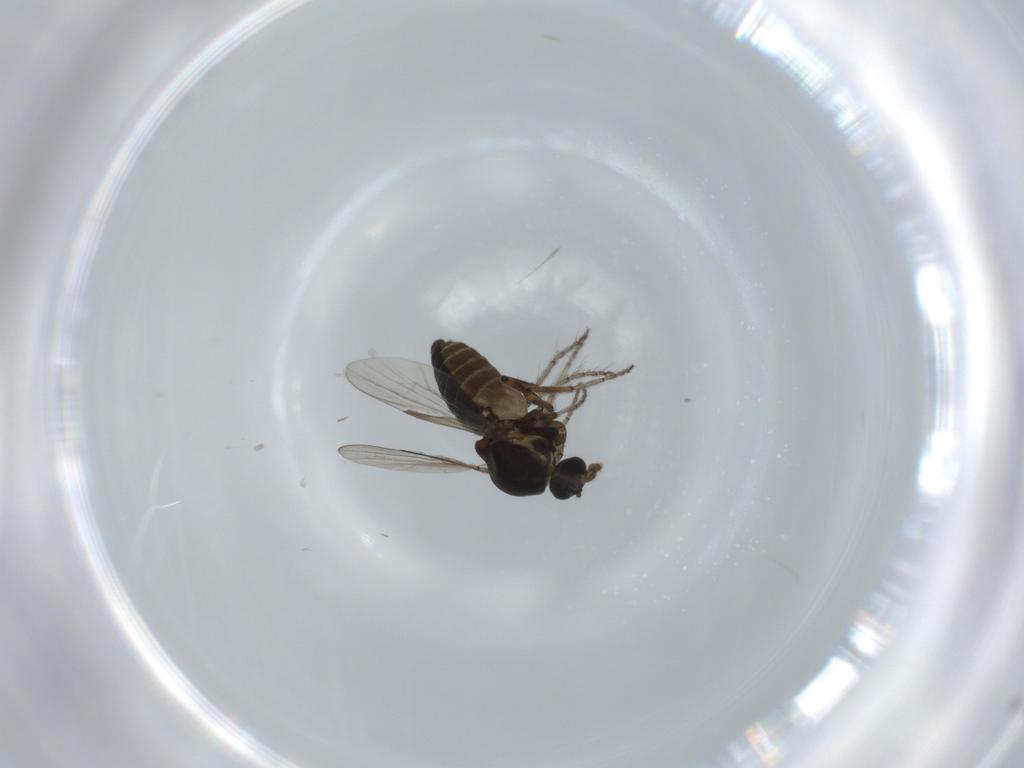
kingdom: Animalia
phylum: Arthropoda
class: Insecta
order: Diptera
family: Ceratopogonidae
